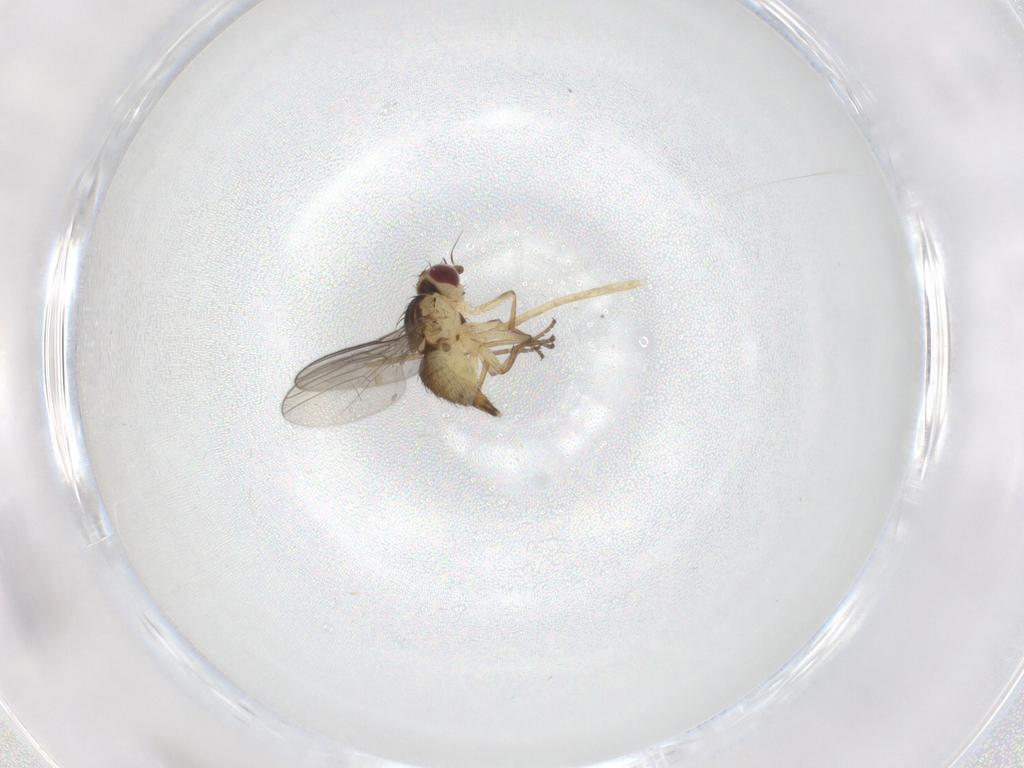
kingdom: Animalia
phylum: Arthropoda
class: Insecta
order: Diptera
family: Agromyzidae
